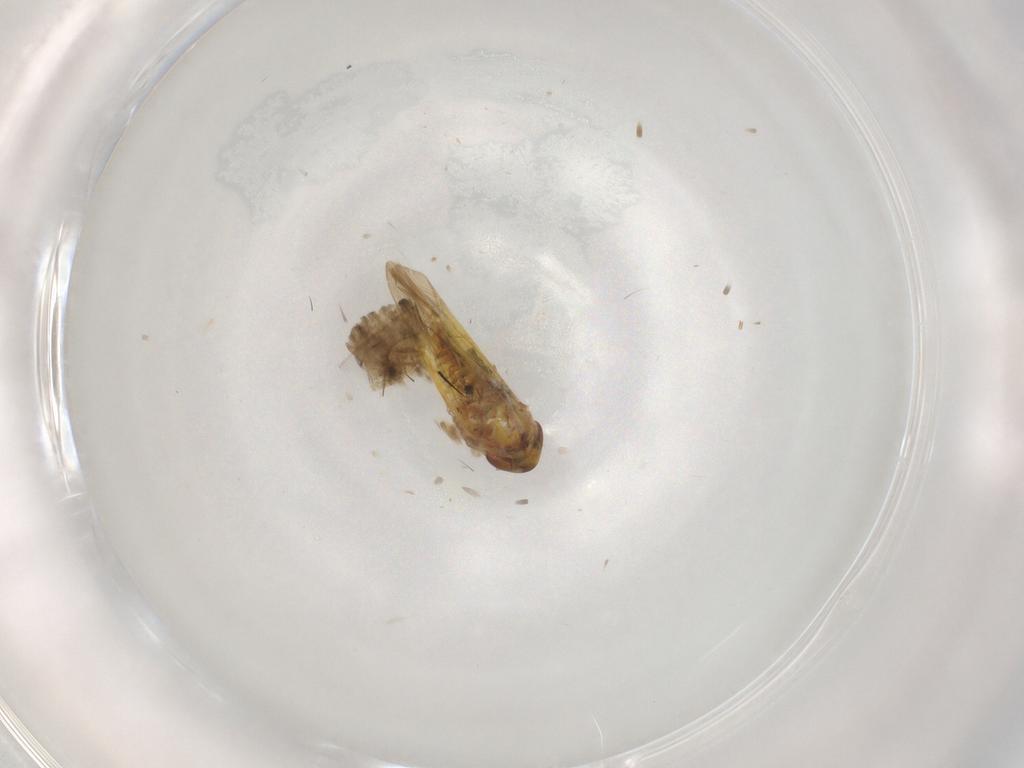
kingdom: Animalia
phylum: Arthropoda
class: Insecta
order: Hemiptera
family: Cicadellidae
